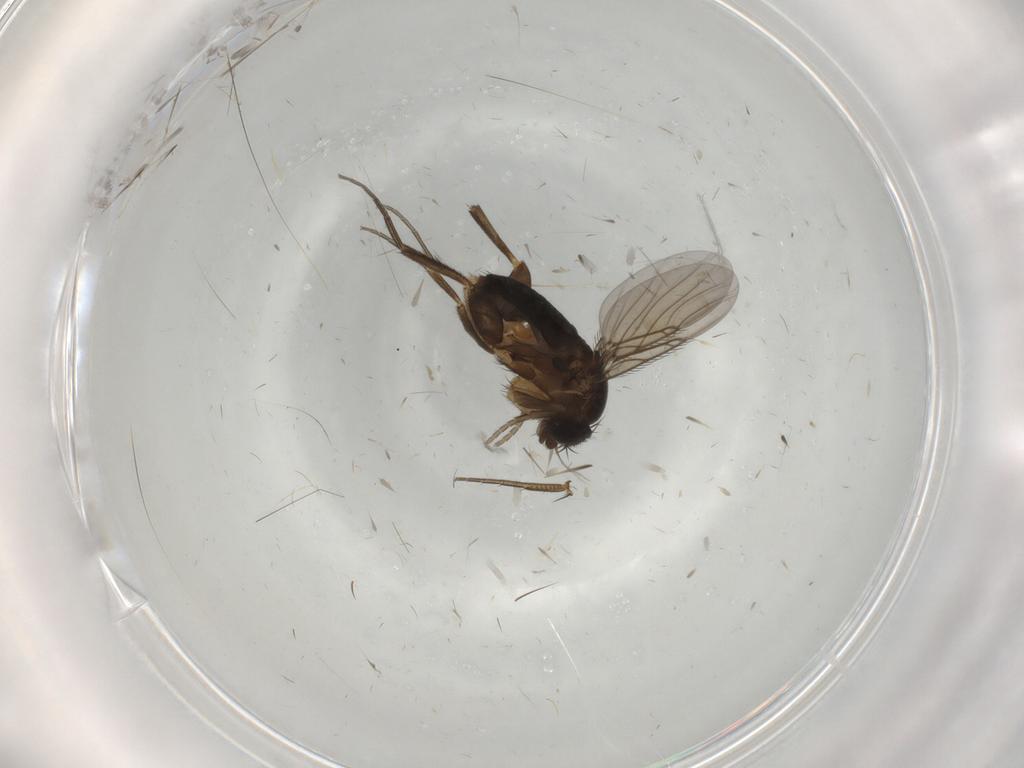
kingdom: Animalia
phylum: Arthropoda
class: Insecta
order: Diptera
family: Phoridae
